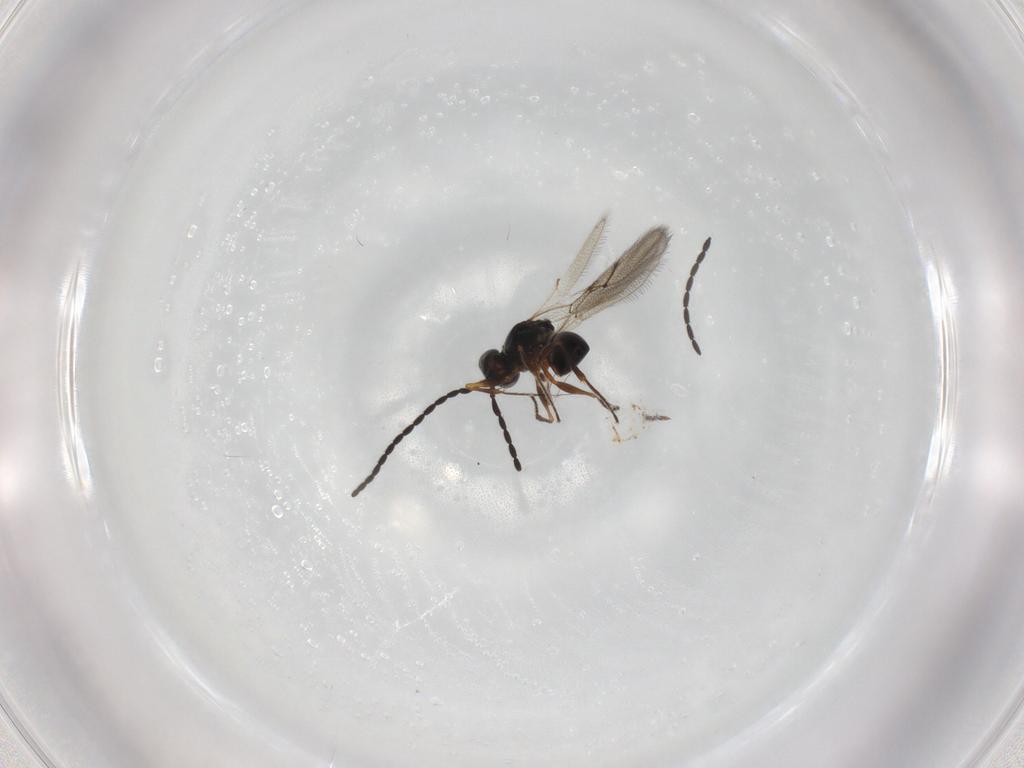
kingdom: Animalia
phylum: Arthropoda
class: Insecta
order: Hymenoptera
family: Figitidae
